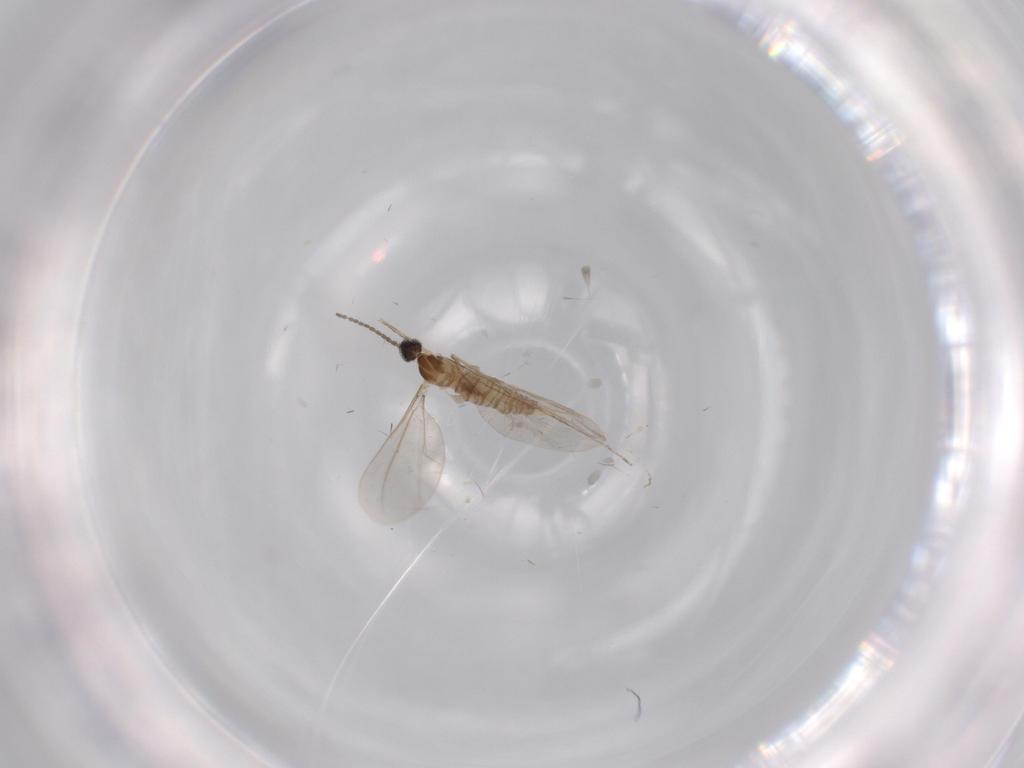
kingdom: Animalia
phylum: Arthropoda
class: Insecta
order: Diptera
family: Cecidomyiidae
